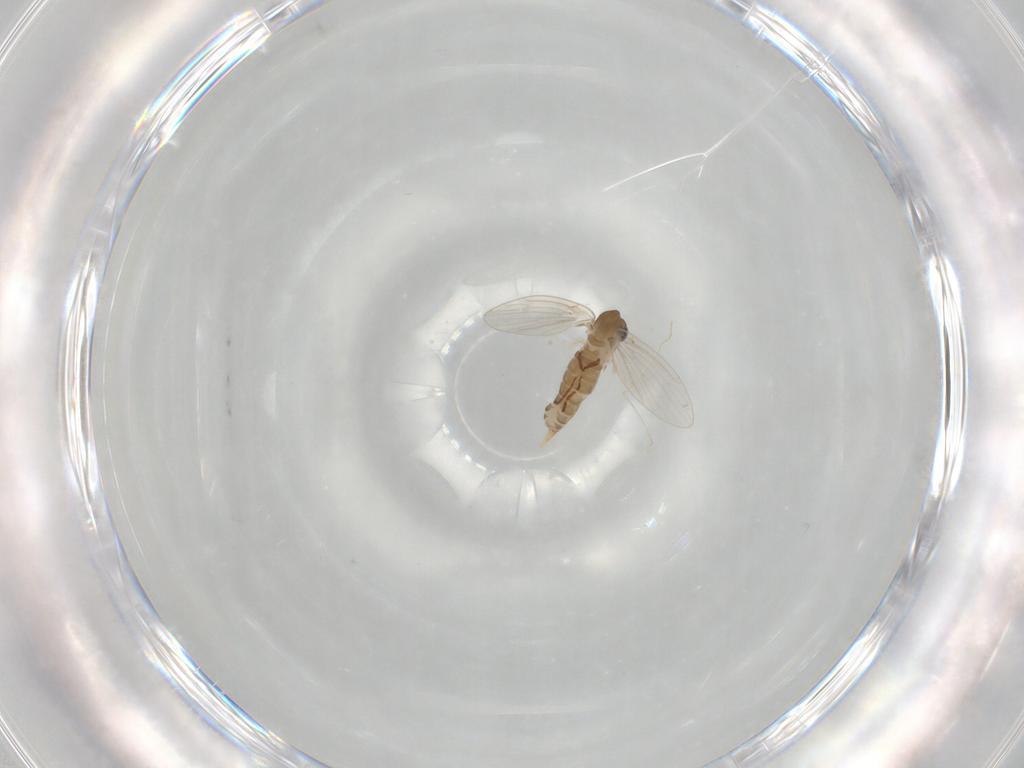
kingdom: Animalia
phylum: Arthropoda
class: Insecta
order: Diptera
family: Psychodidae
